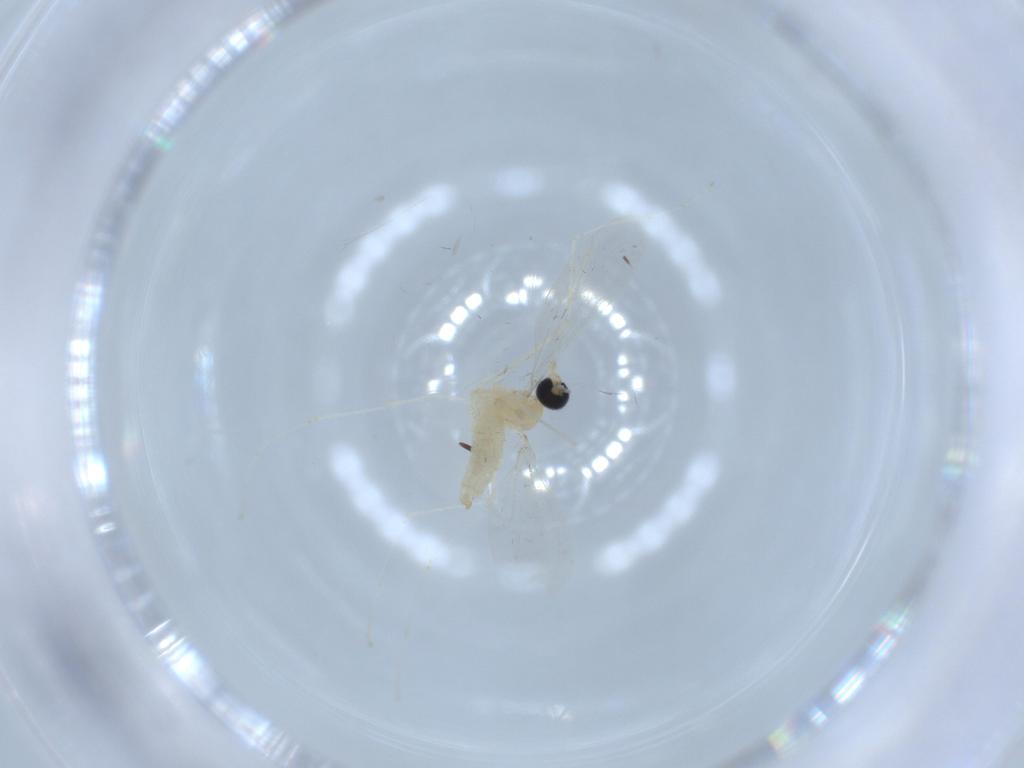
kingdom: Animalia
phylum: Arthropoda
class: Insecta
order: Diptera
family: Cecidomyiidae
